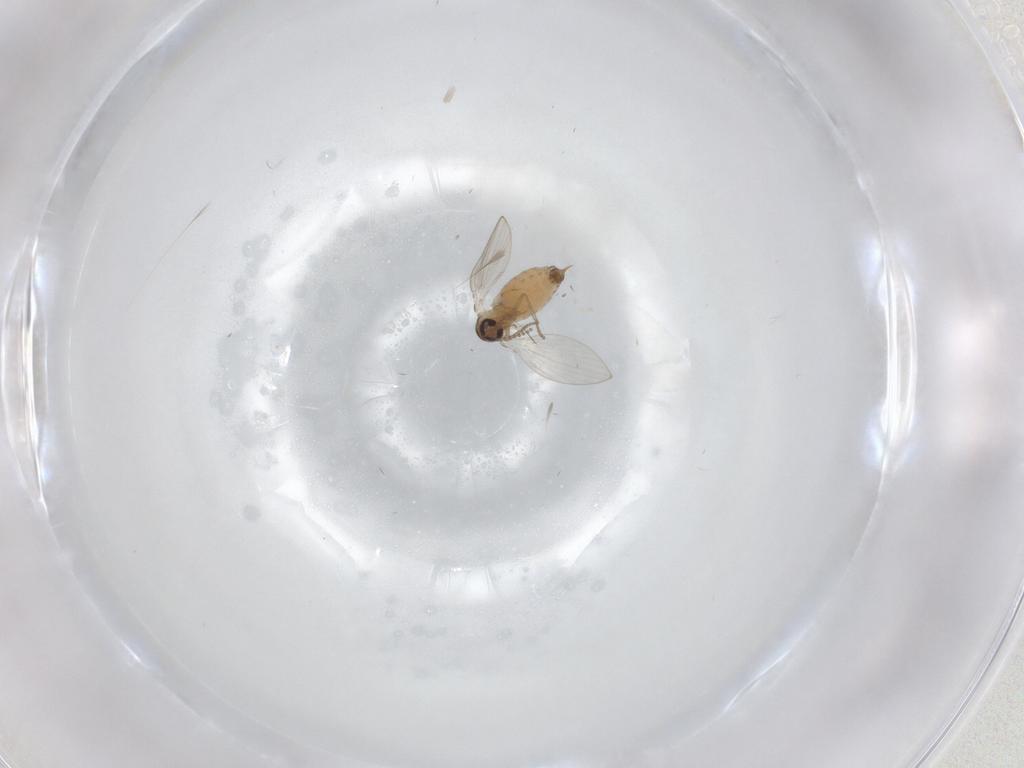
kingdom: Animalia
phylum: Arthropoda
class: Insecta
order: Diptera
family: Psychodidae
